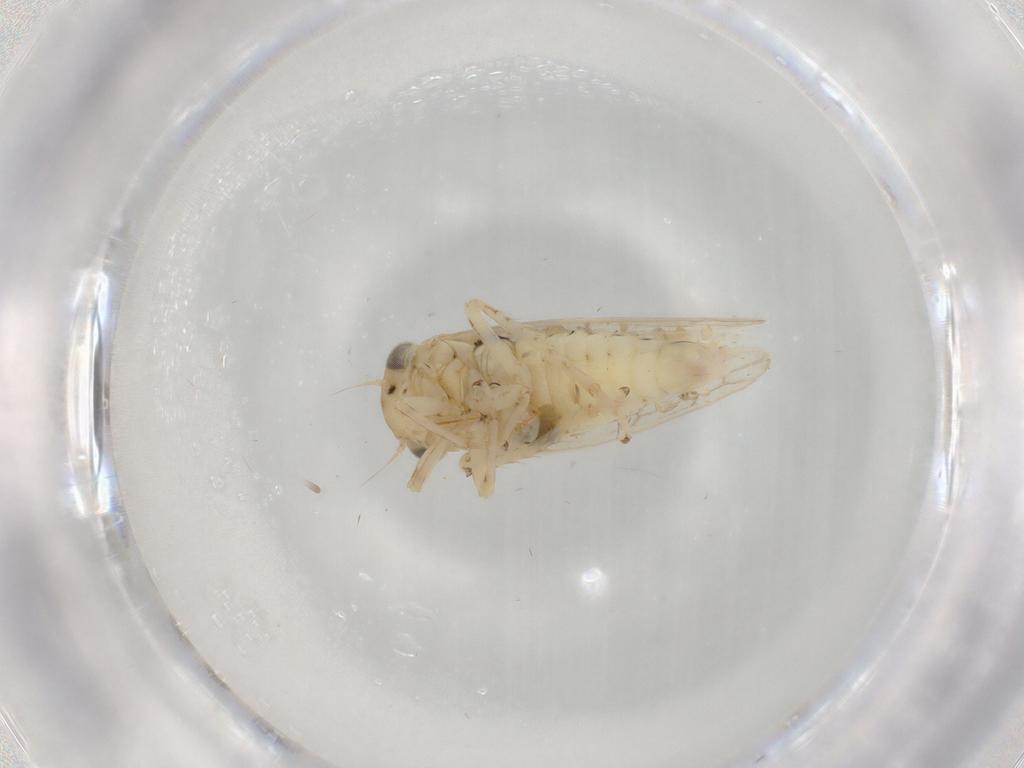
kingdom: Animalia
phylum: Arthropoda
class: Insecta
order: Hemiptera
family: Cicadellidae
